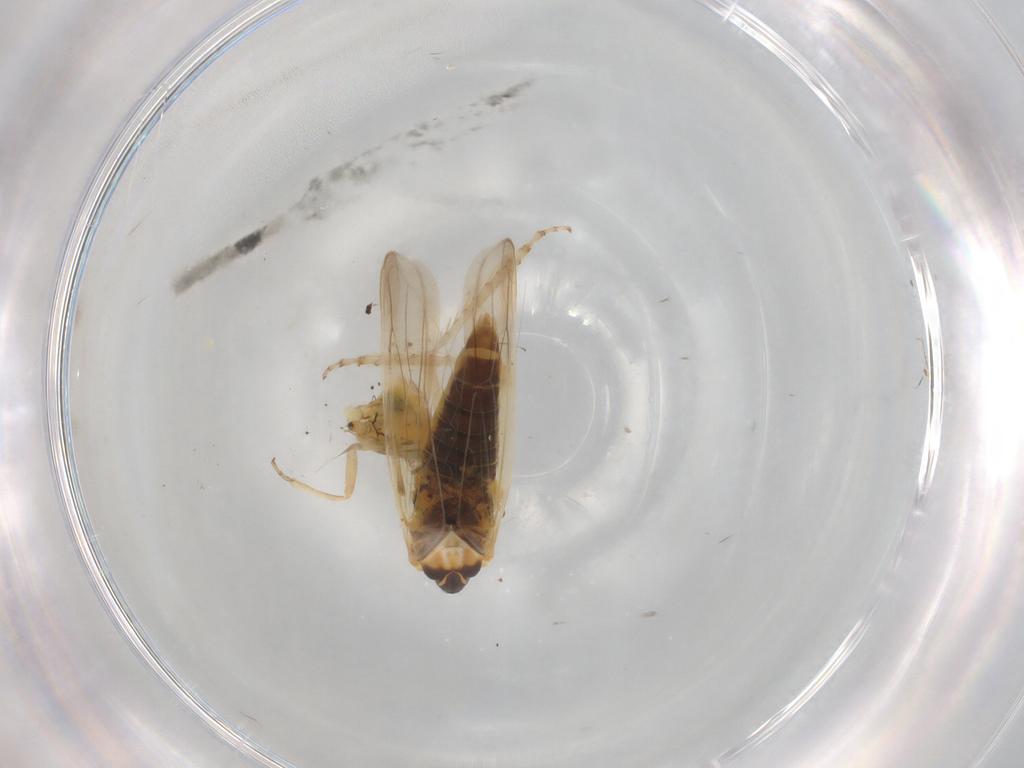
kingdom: Animalia
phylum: Arthropoda
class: Insecta
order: Hemiptera
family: Cicadellidae
